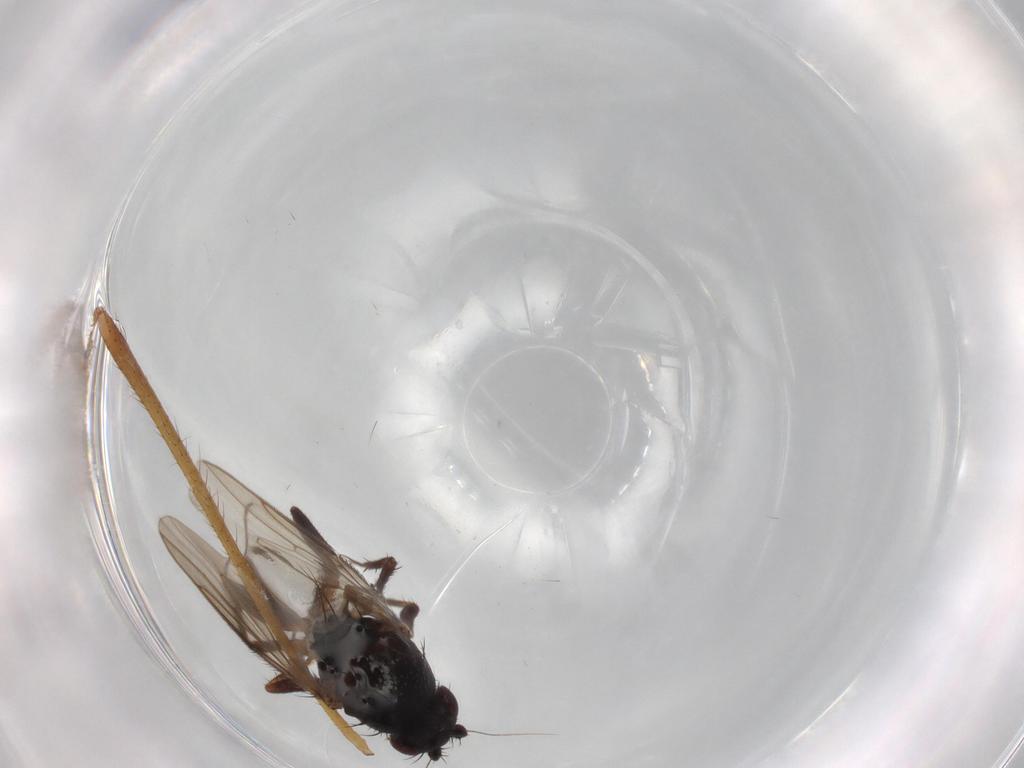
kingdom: Animalia
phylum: Arthropoda
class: Insecta
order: Diptera
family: Sphaeroceridae
